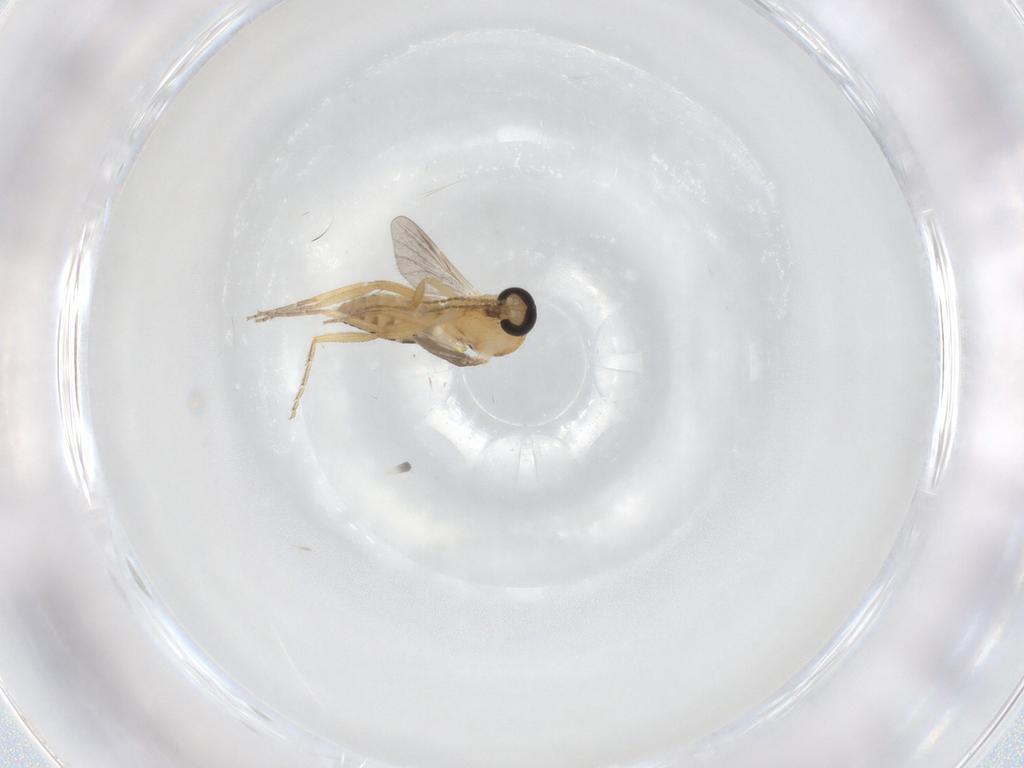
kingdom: Animalia
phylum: Arthropoda
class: Insecta
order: Diptera
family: Ceratopogonidae
